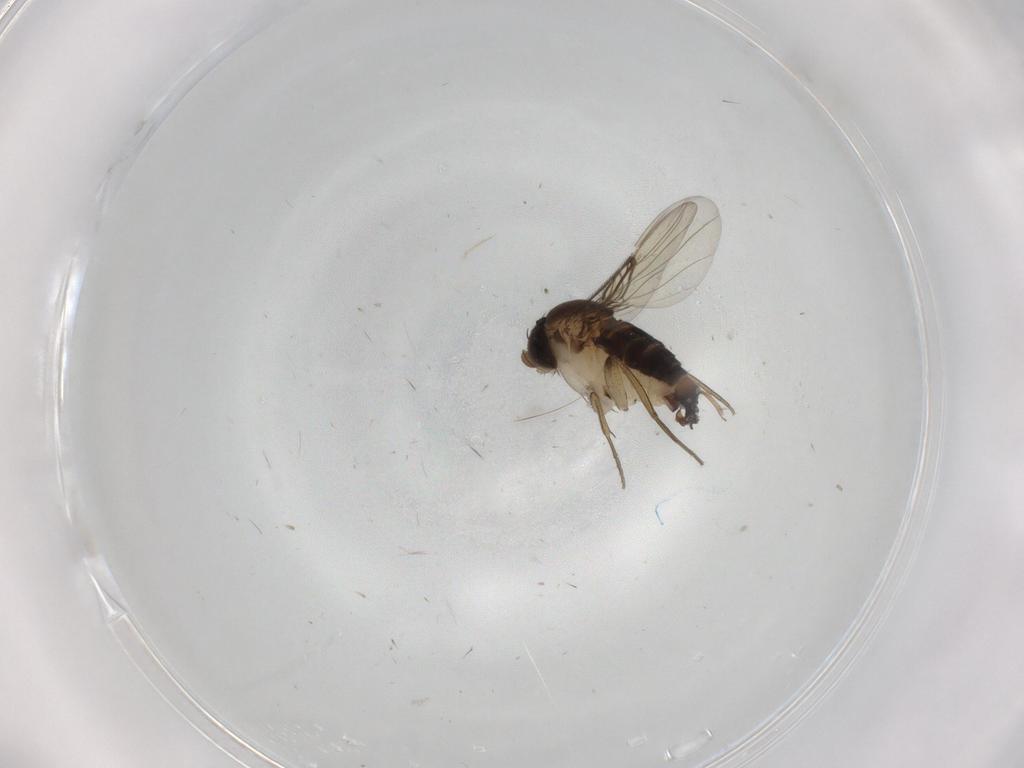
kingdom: Animalia
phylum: Arthropoda
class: Insecta
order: Diptera
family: Phoridae
